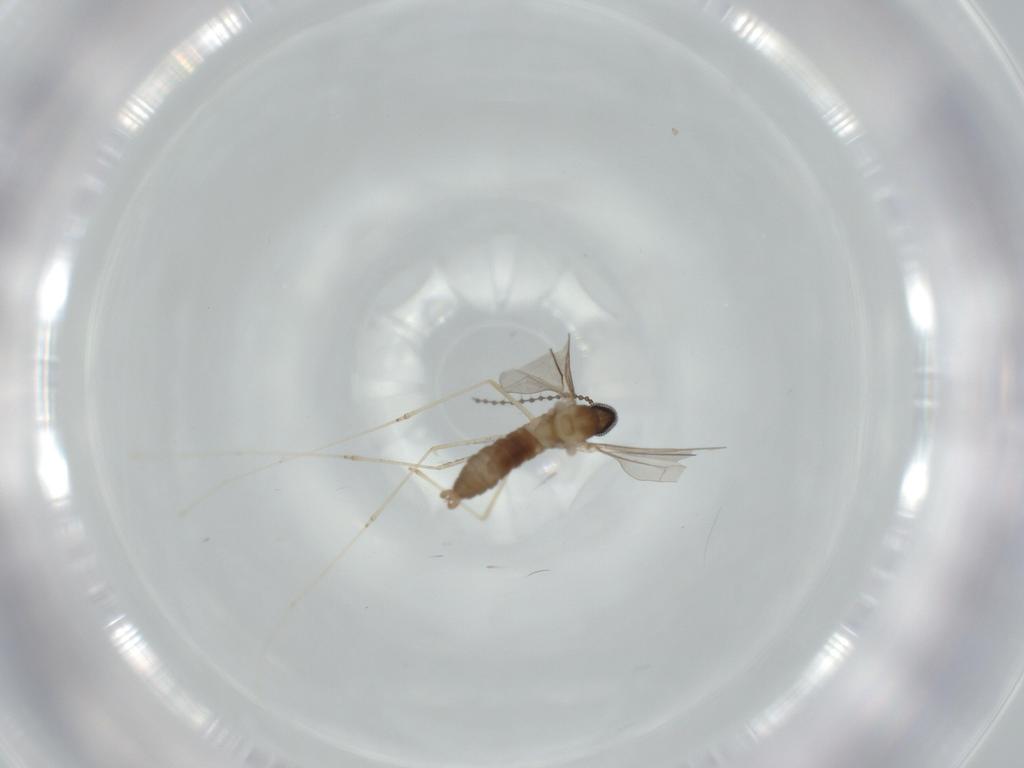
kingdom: Animalia
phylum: Arthropoda
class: Insecta
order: Diptera
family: Cecidomyiidae
